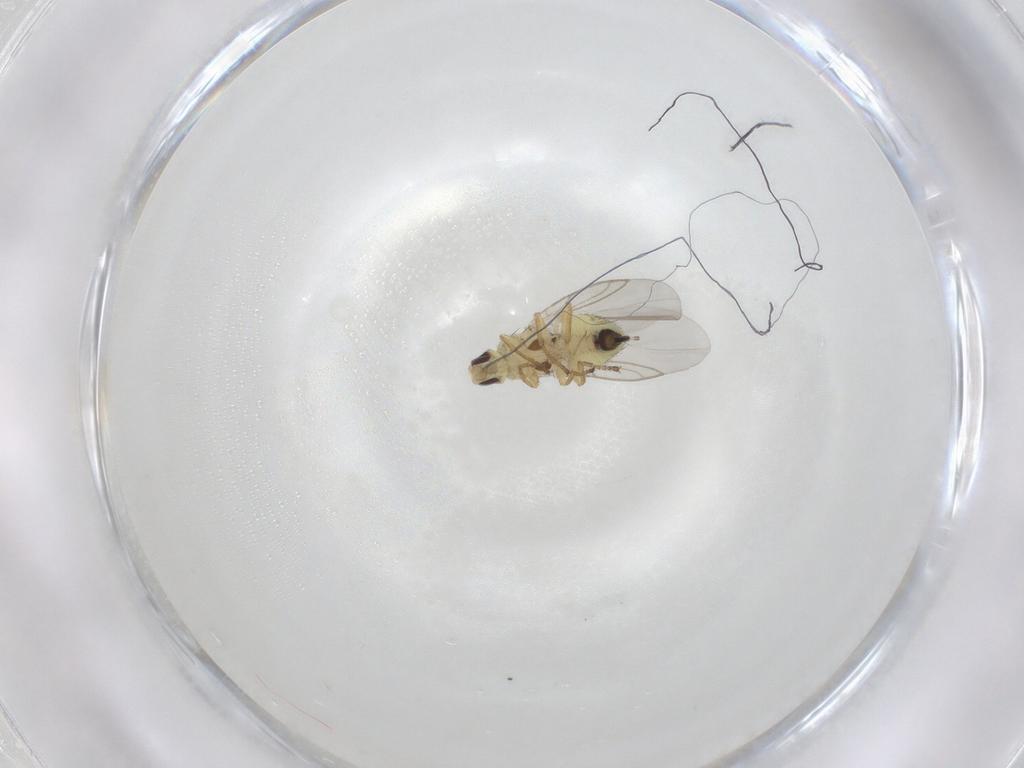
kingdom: Animalia
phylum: Arthropoda
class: Insecta
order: Diptera
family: Agromyzidae
